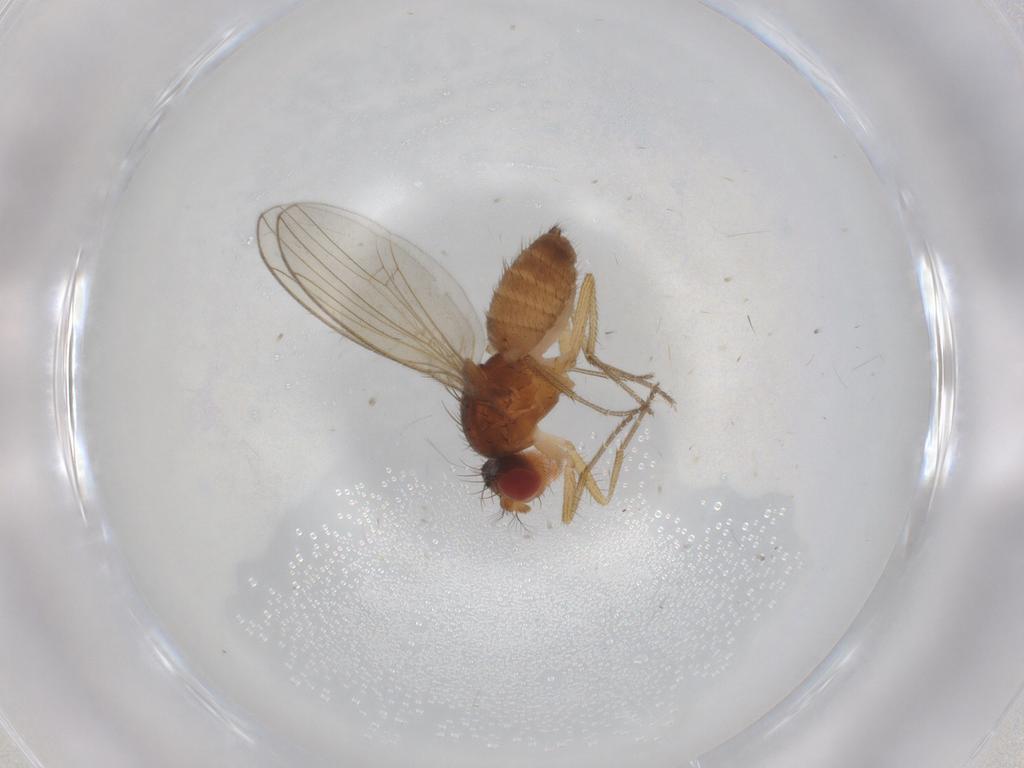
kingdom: Animalia
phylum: Arthropoda
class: Insecta
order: Diptera
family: Drosophilidae
